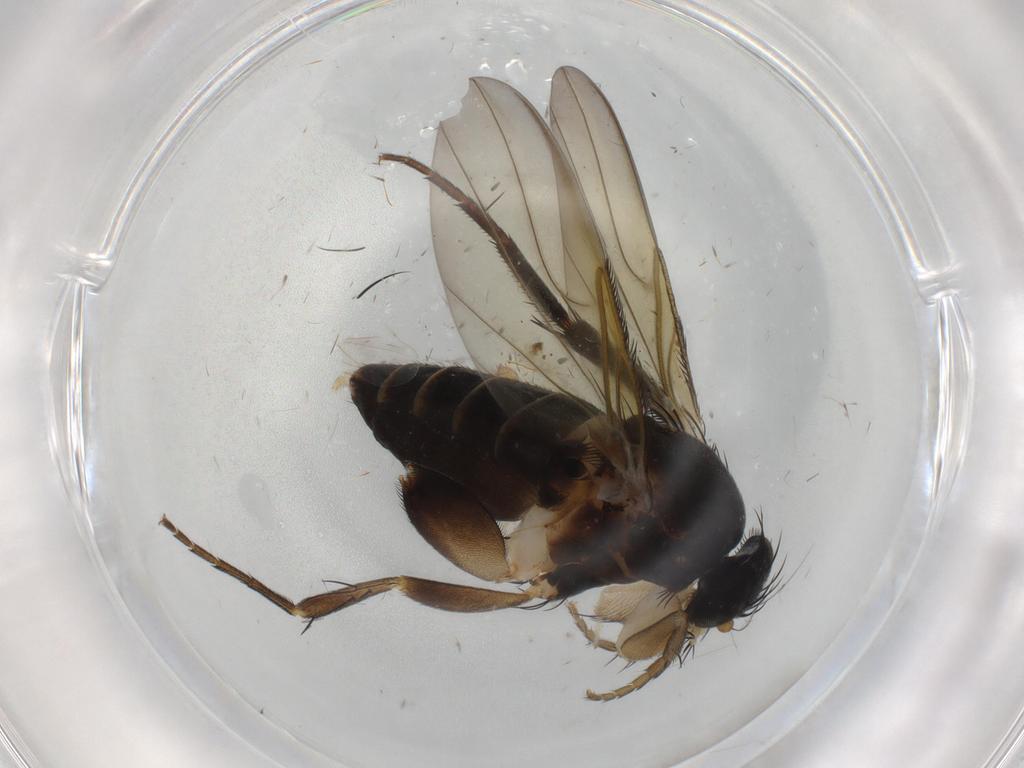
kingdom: Animalia
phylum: Arthropoda
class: Insecta
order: Diptera
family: Phoridae
